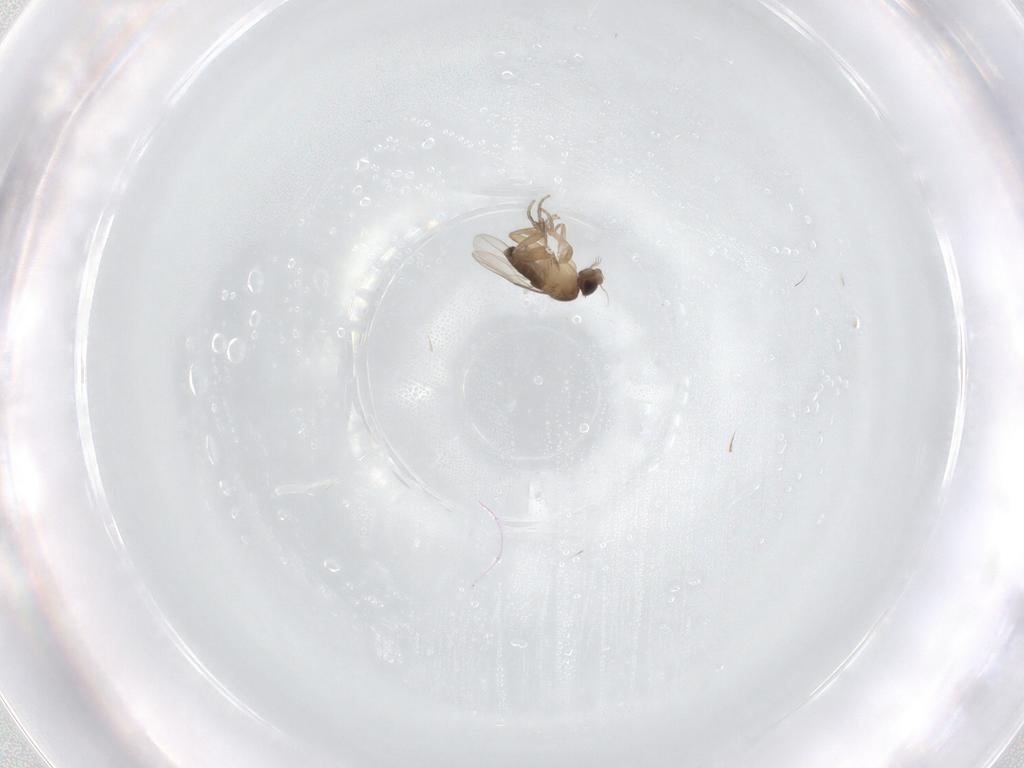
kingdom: Animalia
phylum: Arthropoda
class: Insecta
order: Diptera
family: Phoridae
